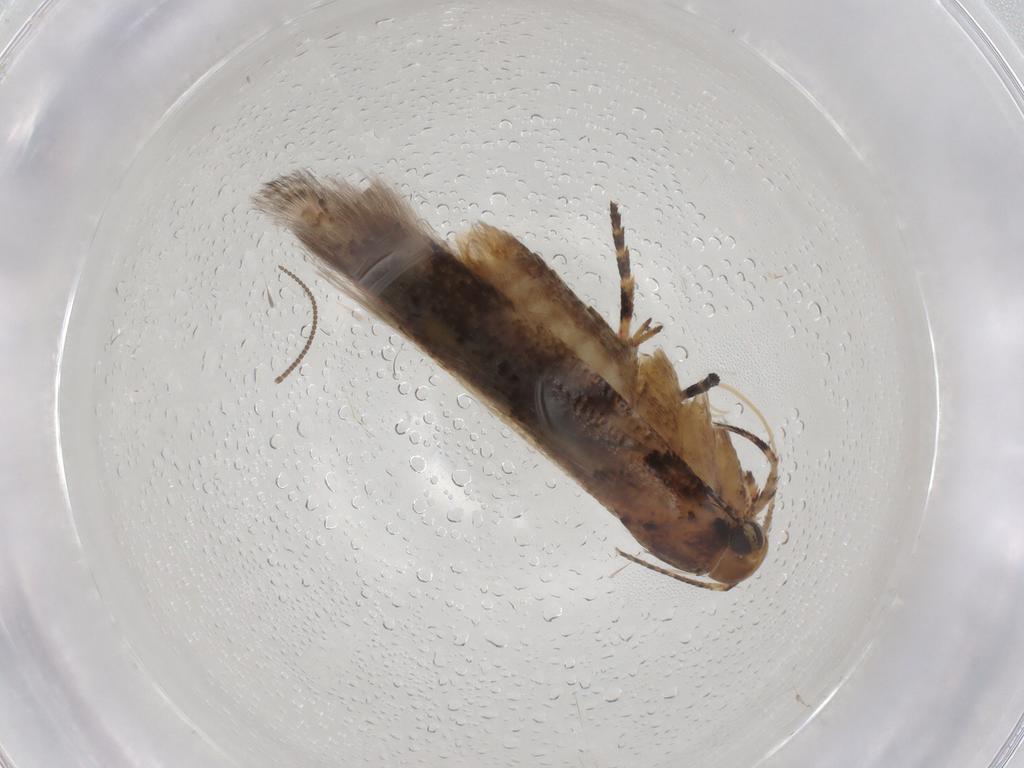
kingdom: Animalia
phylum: Arthropoda
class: Insecta
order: Lepidoptera
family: Gelechiidae
